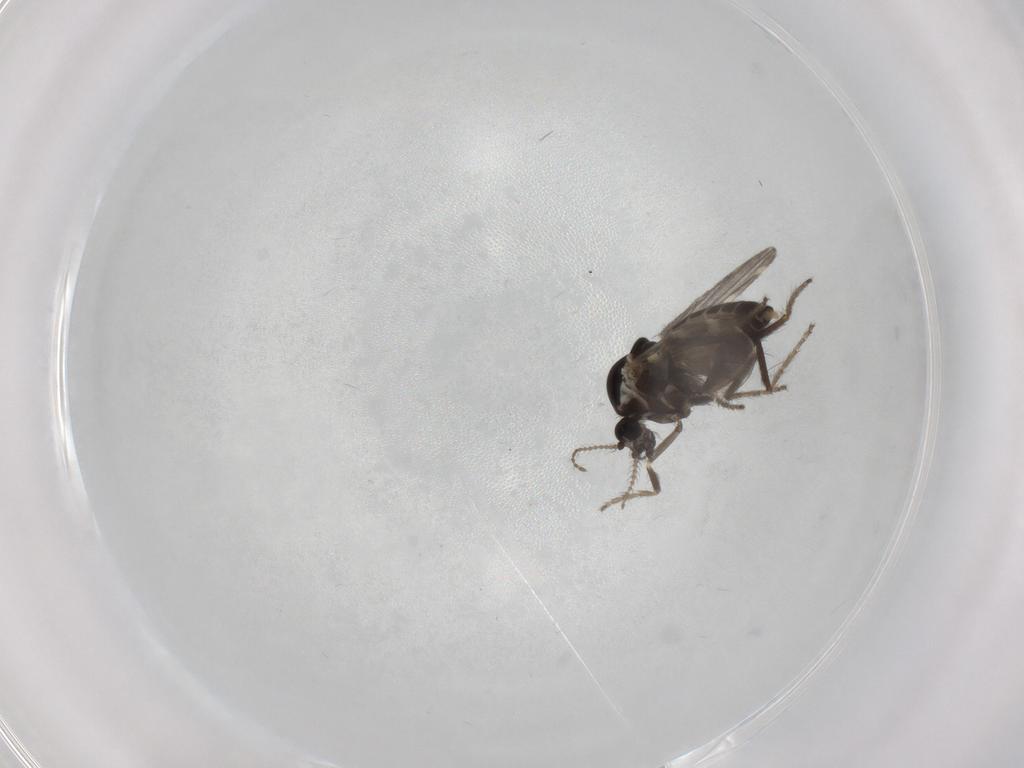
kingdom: Animalia
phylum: Arthropoda
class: Insecta
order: Diptera
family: Ceratopogonidae
